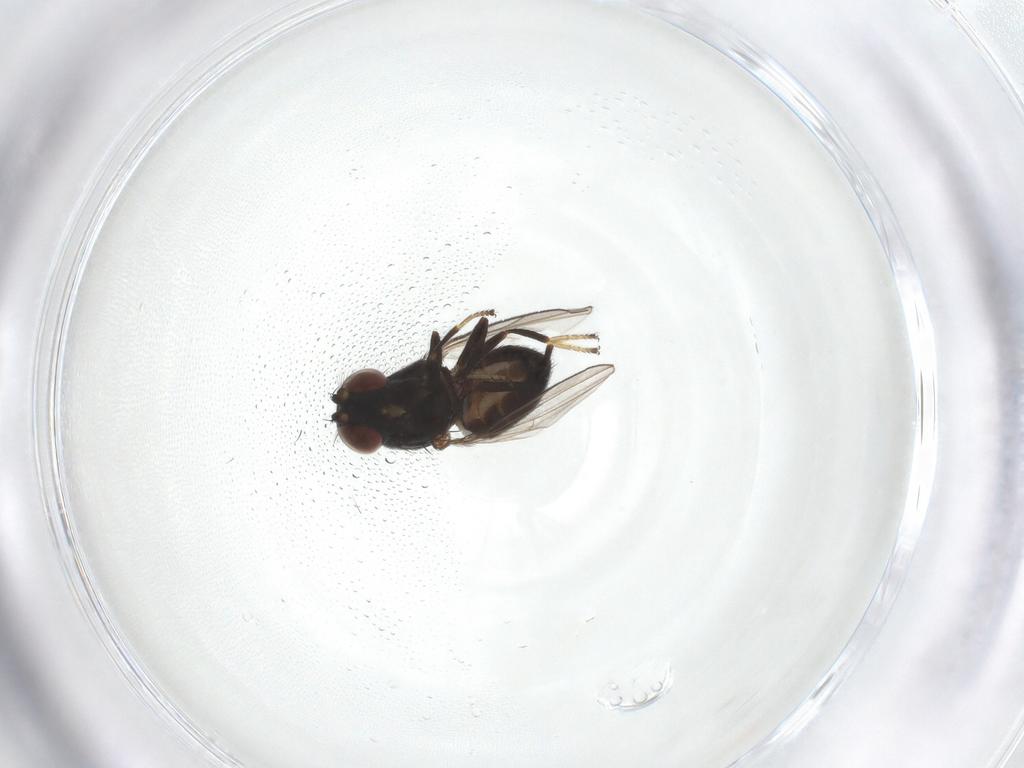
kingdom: Animalia
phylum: Arthropoda
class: Insecta
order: Diptera
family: Ephydridae
